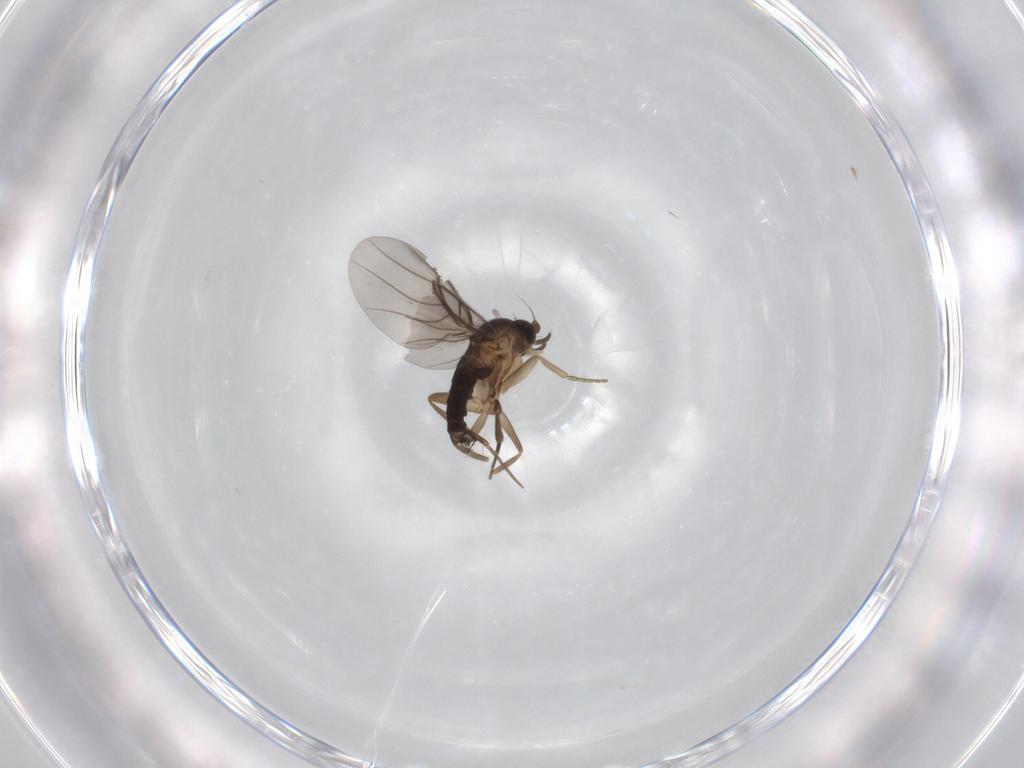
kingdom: Animalia
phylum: Arthropoda
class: Insecta
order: Diptera
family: Phoridae
